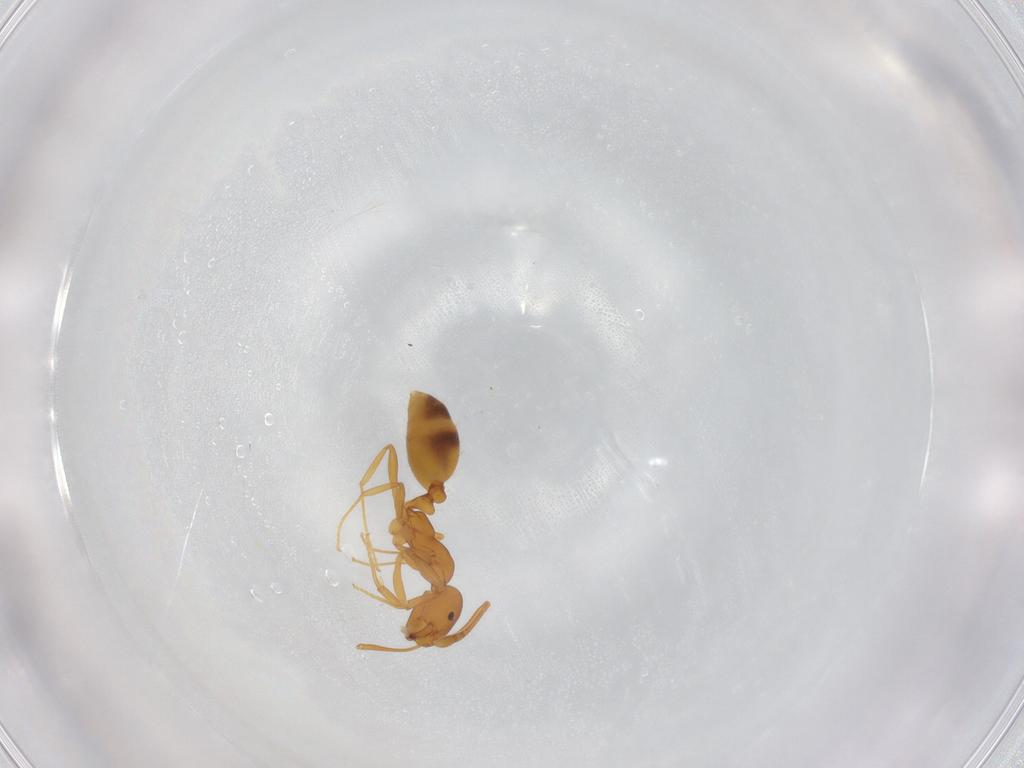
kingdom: Animalia
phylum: Arthropoda
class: Insecta
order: Hymenoptera
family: Formicidae
